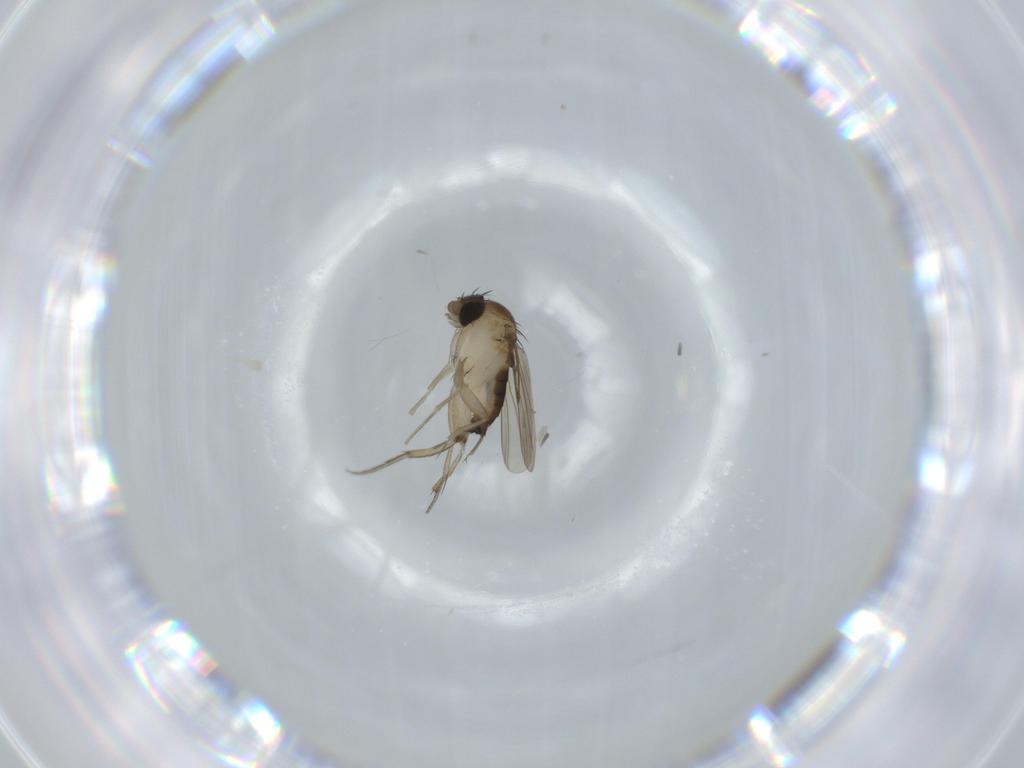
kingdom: Animalia
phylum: Arthropoda
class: Insecta
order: Diptera
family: Phoridae
